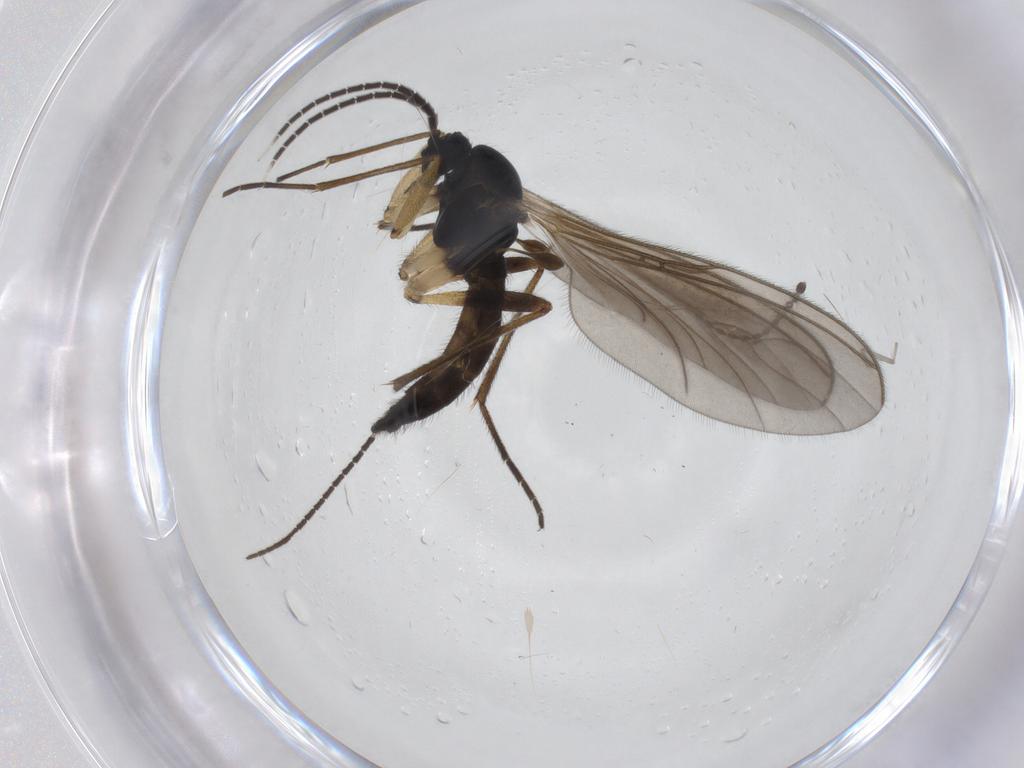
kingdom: Animalia
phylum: Arthropoda
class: Insecta
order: Diptera
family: Sciaridae
